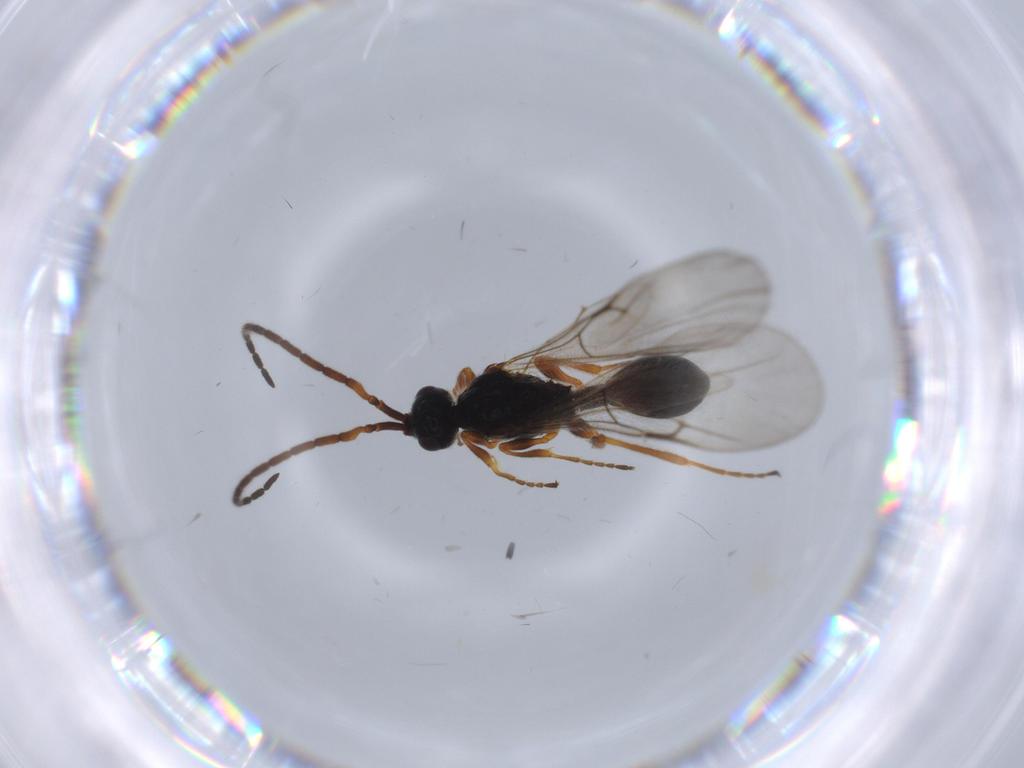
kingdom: Animalia
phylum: Arthropoda
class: Insecta
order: Hymenoptera
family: Braconidae
